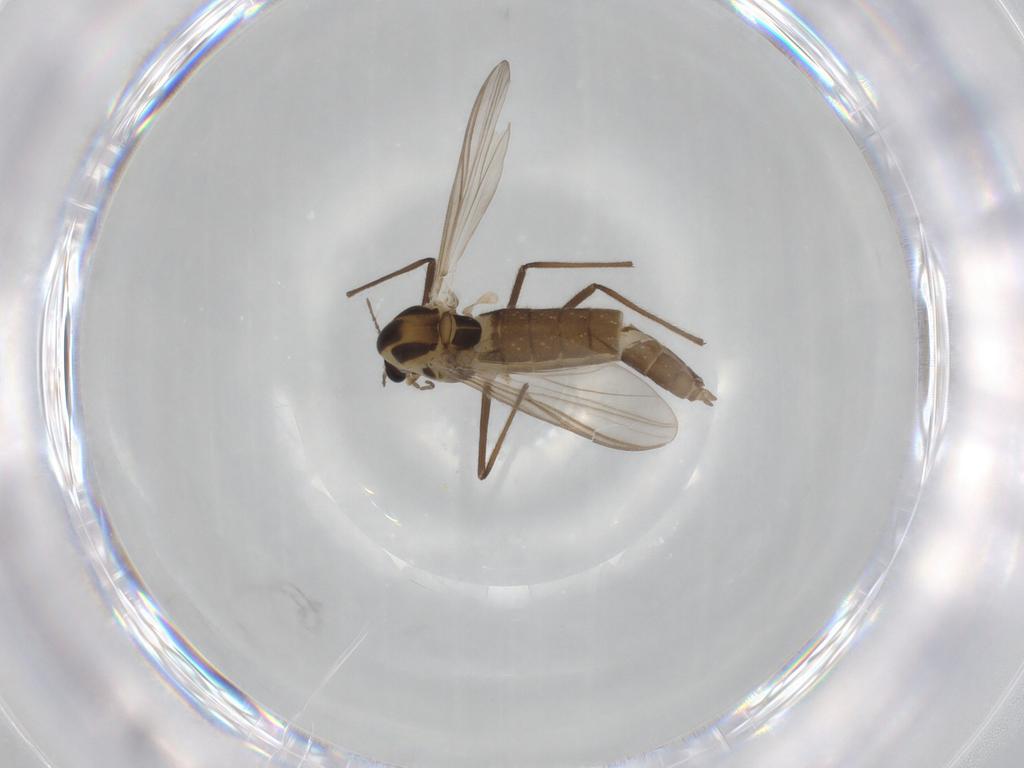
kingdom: Animalia
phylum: Arthropoda
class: Insecta
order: Diptera
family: Chironomidae
